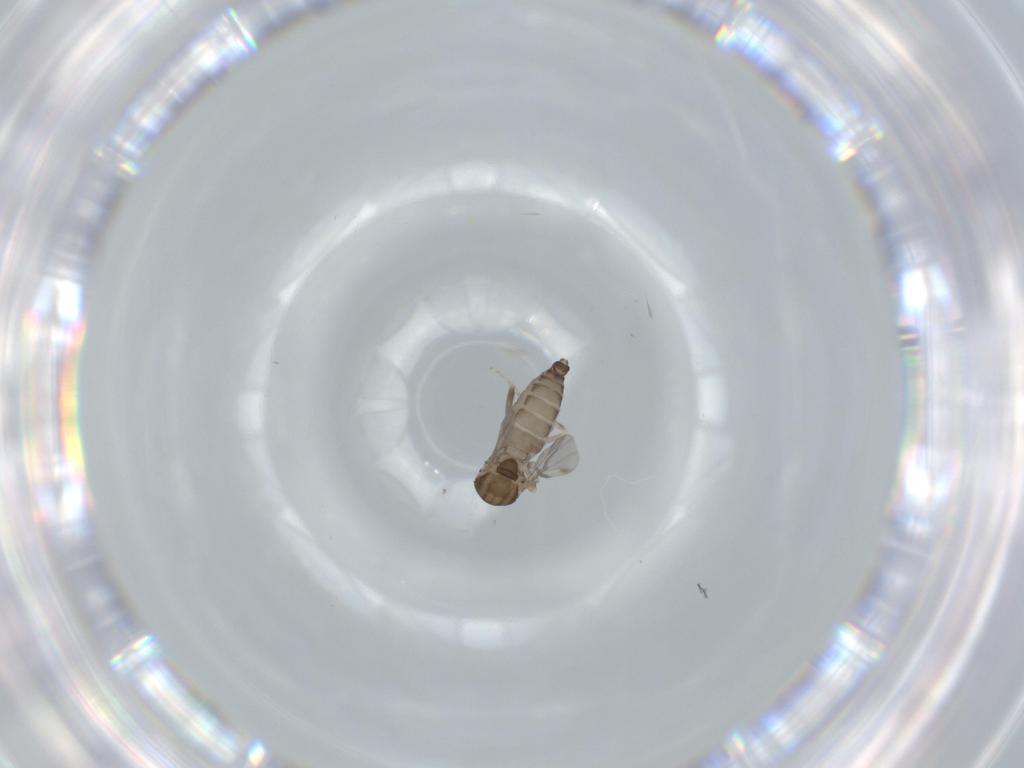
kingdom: Animalia
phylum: Arthropoda
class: Insecta
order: Diptera
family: Ceratopogonidae
